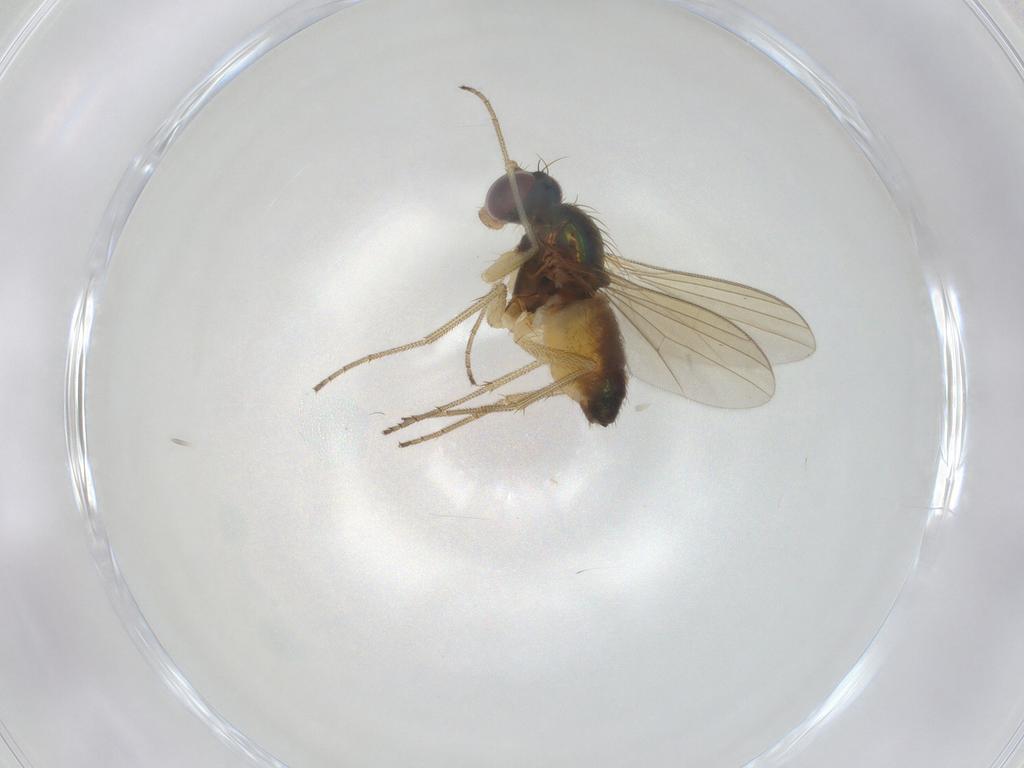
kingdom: Animalia
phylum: Arthropoda
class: Insecta
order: Diptera
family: Dolichopodidae
